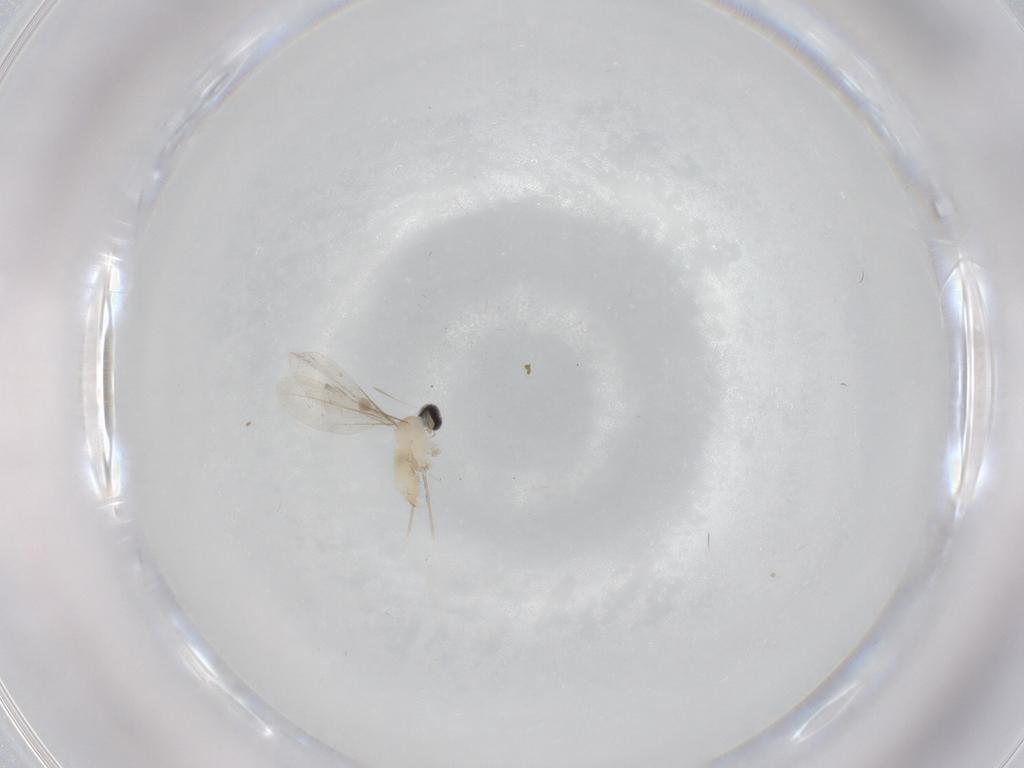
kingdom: Animalia
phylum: Arthropoda
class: Insecta
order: Diptera
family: Cecidomyiidae
